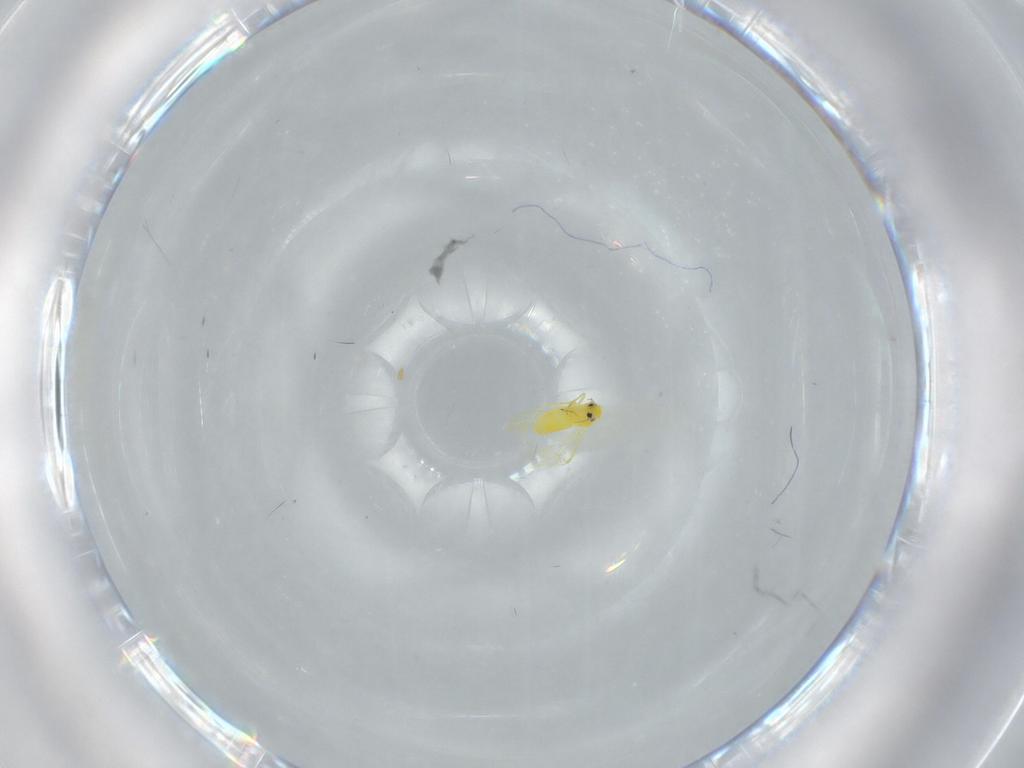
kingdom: Animalia
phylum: Arthropoda
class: Insecta
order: Hemiptera
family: Aleyrodidae
